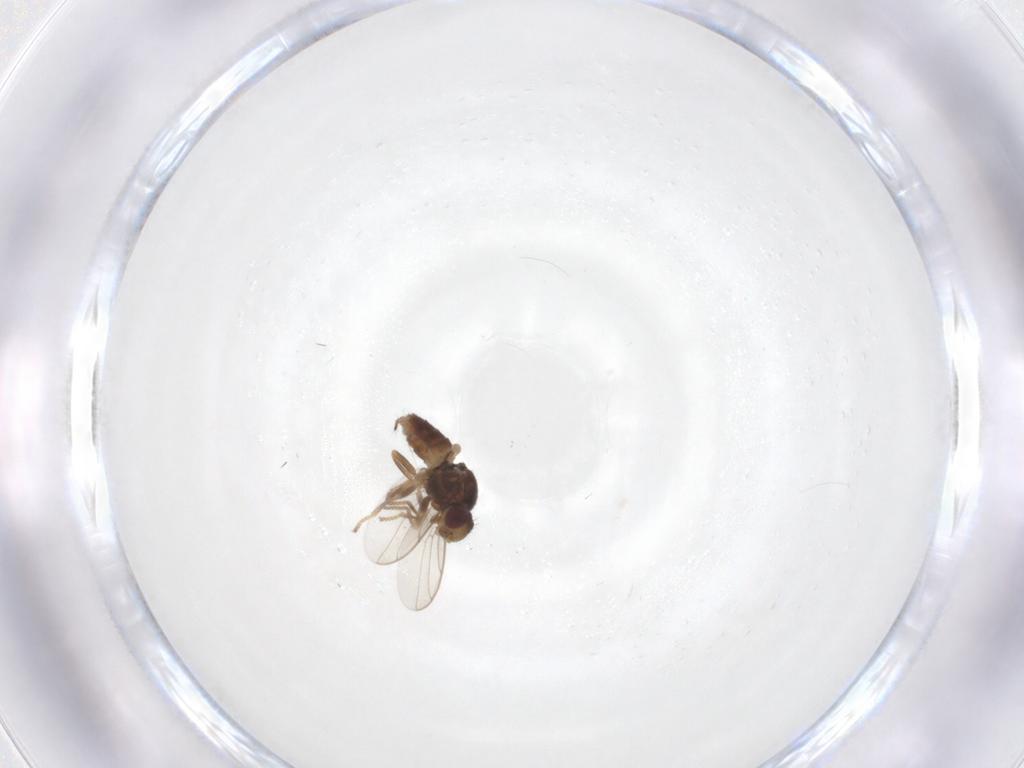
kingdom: Animalia
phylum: Arthropoda
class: Insecta
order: Diptera
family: Chloropidae
